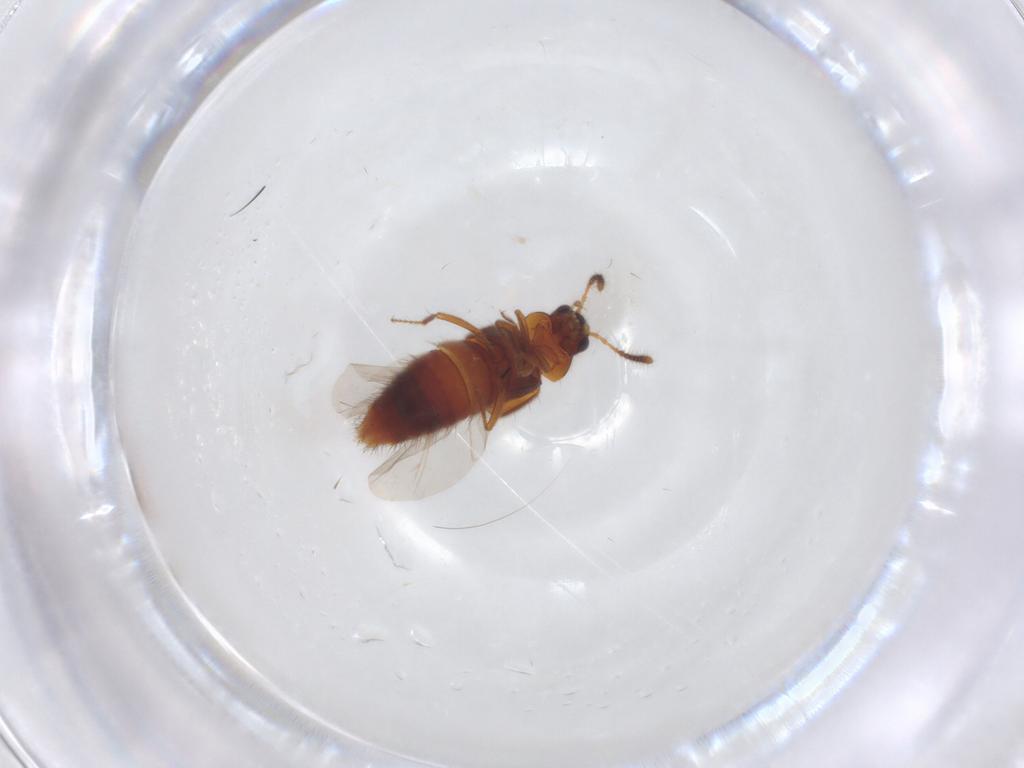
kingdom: Animalia
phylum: Arthropoda
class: Insecta
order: Coleoptera
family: Staphylinidae
